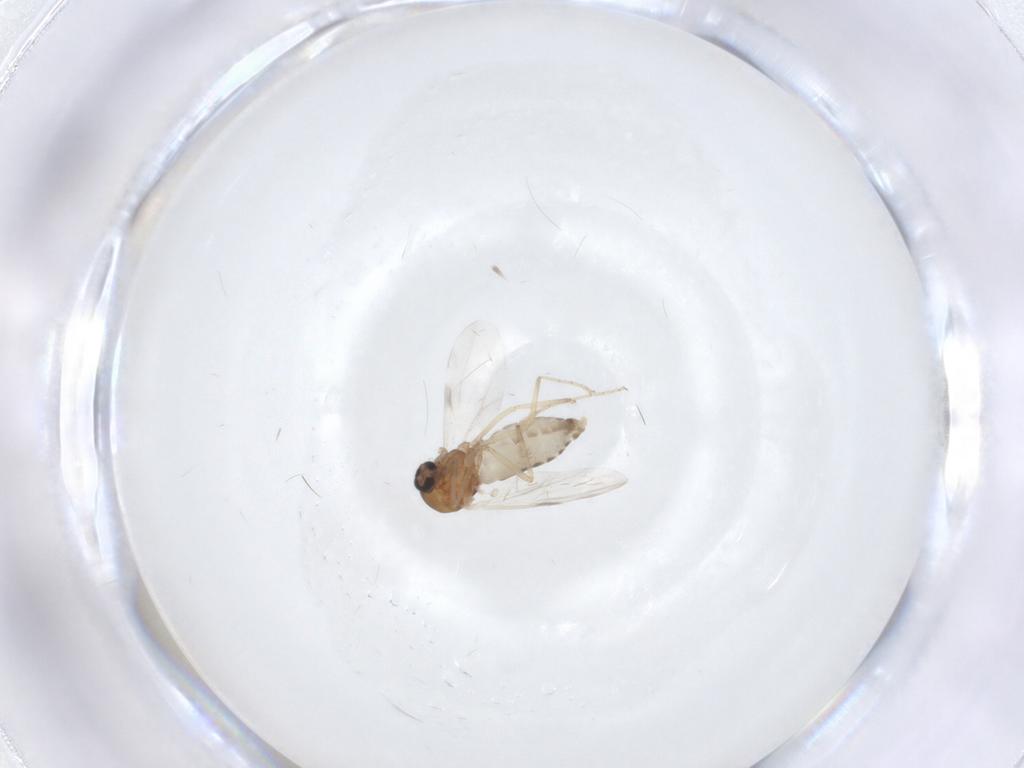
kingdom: Animalia
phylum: Arthropoda
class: Insecta
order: Diptera
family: Ceratopogonidae
